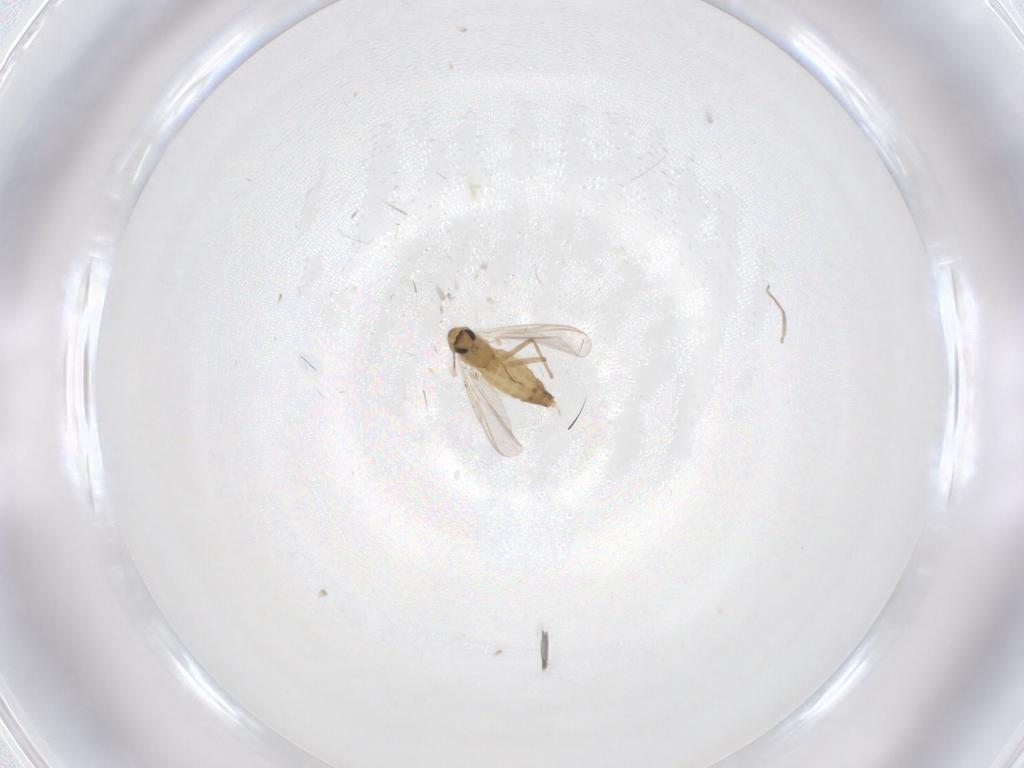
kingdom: Animalia
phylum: Arthropoda
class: Insecta
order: Diptera
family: Chironomidae
